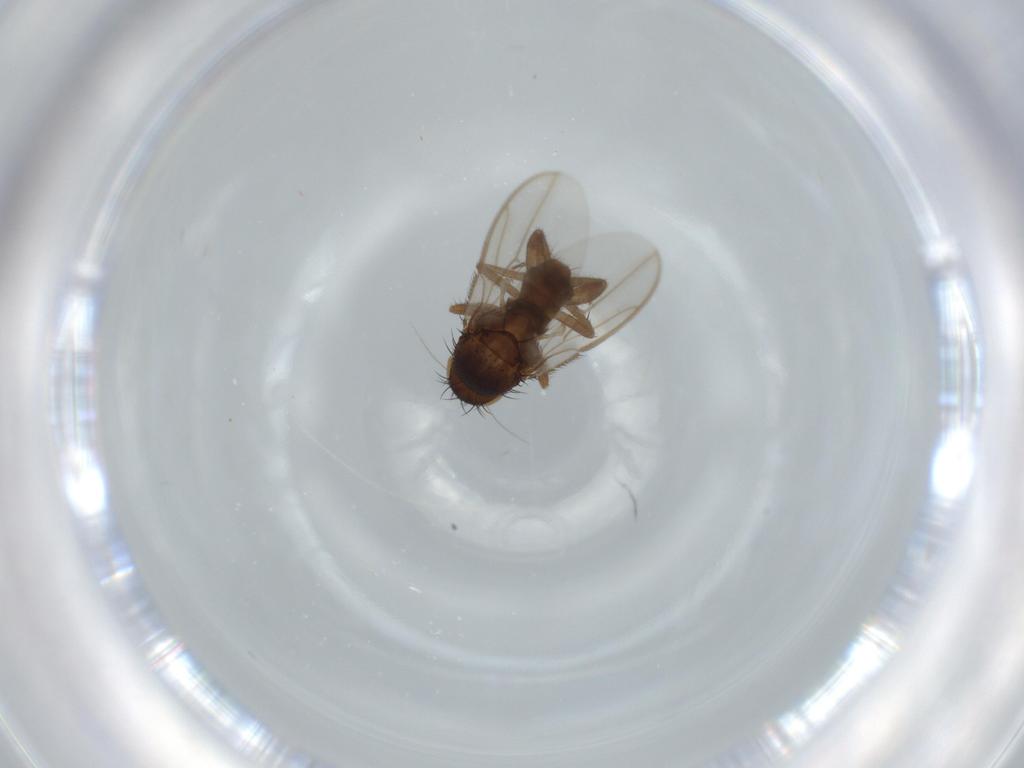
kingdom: Animalia
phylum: Arthropoda
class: Insecta
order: Diptera
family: Sphaeroceridae
